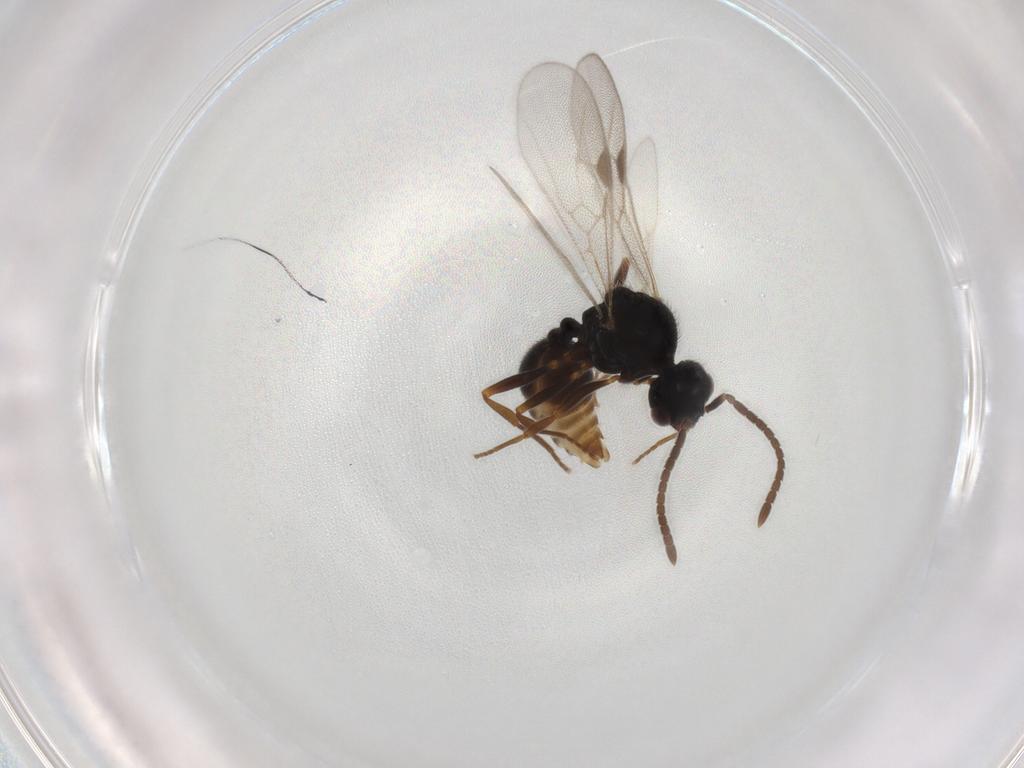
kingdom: Animalia
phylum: Arthropoda
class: Insecta
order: Hymenoptera
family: Formicidae
